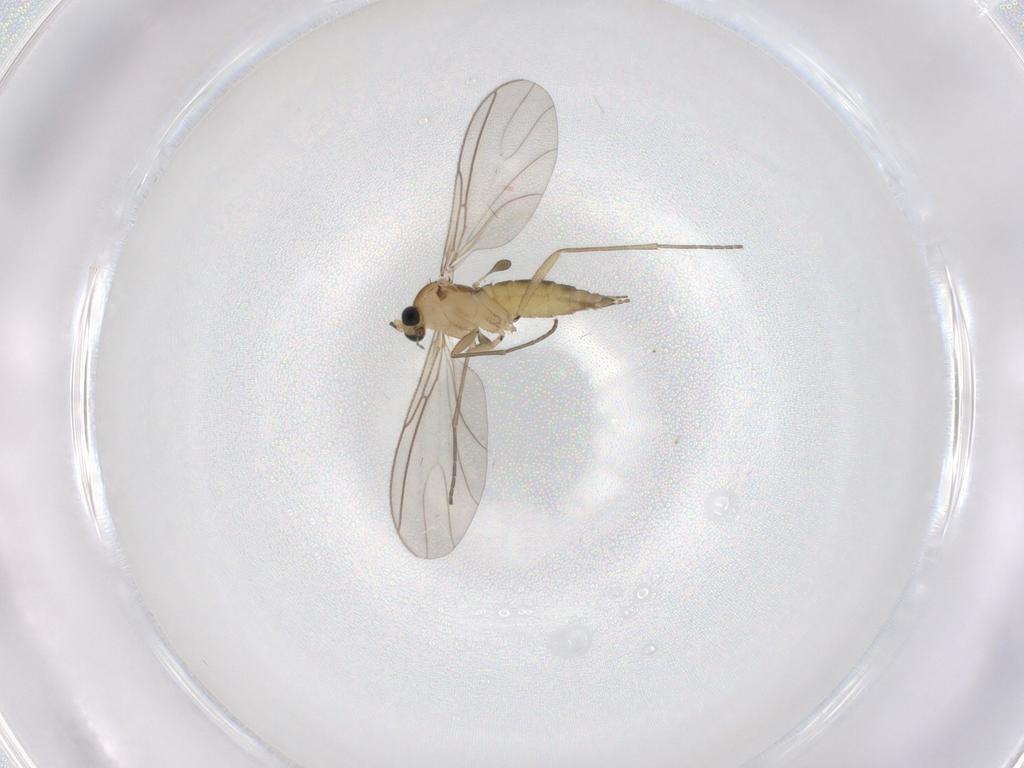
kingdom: Animalia
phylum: Arthropoda
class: Insecta
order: Diptera
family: Sciaridae
